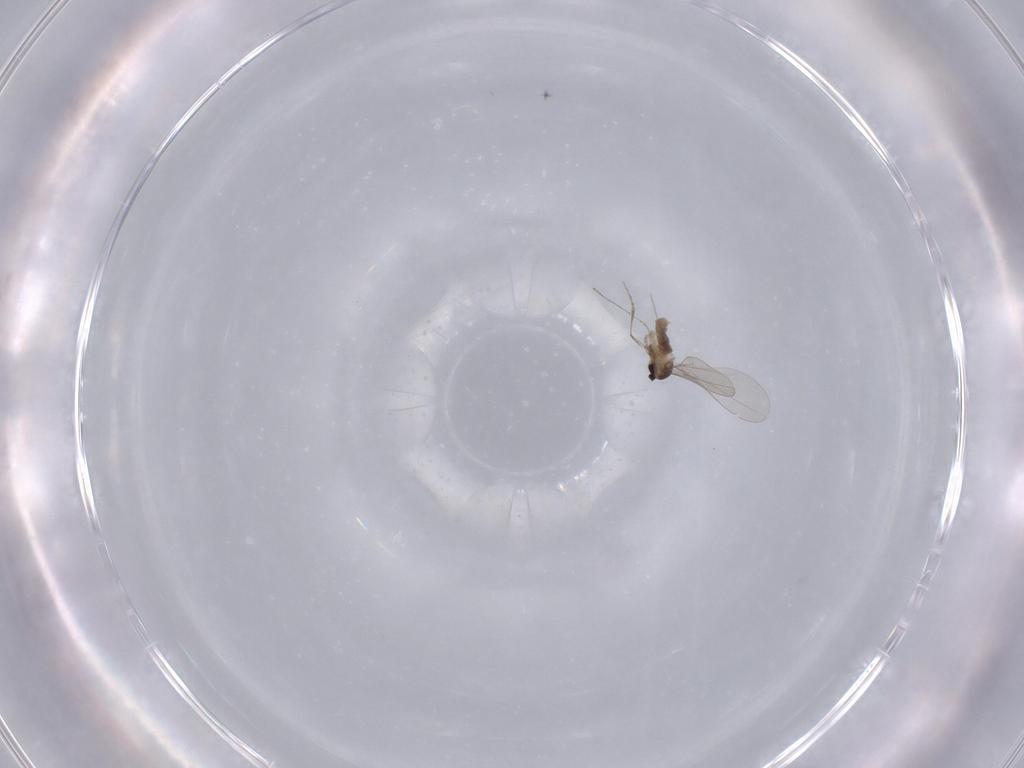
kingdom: Animalia
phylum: Arthropoda
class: Insecta
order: Diptera
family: Cecidomyiidae
